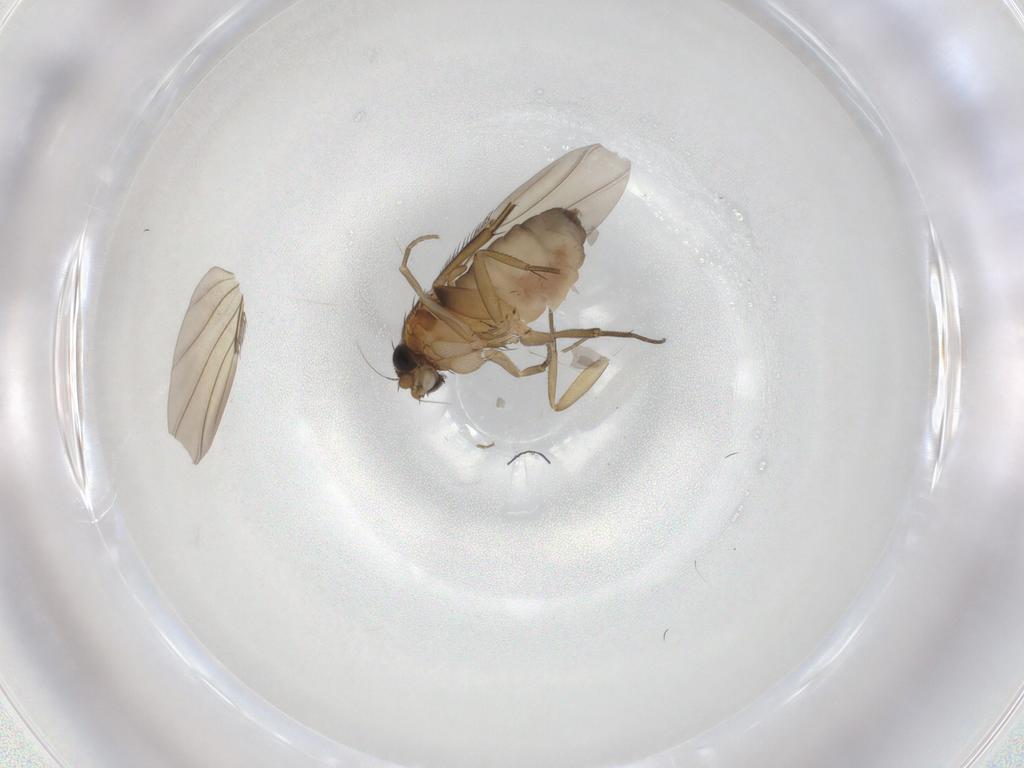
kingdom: Animalia
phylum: Arthropoda
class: Insecta
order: Diptera
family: Phoridae
